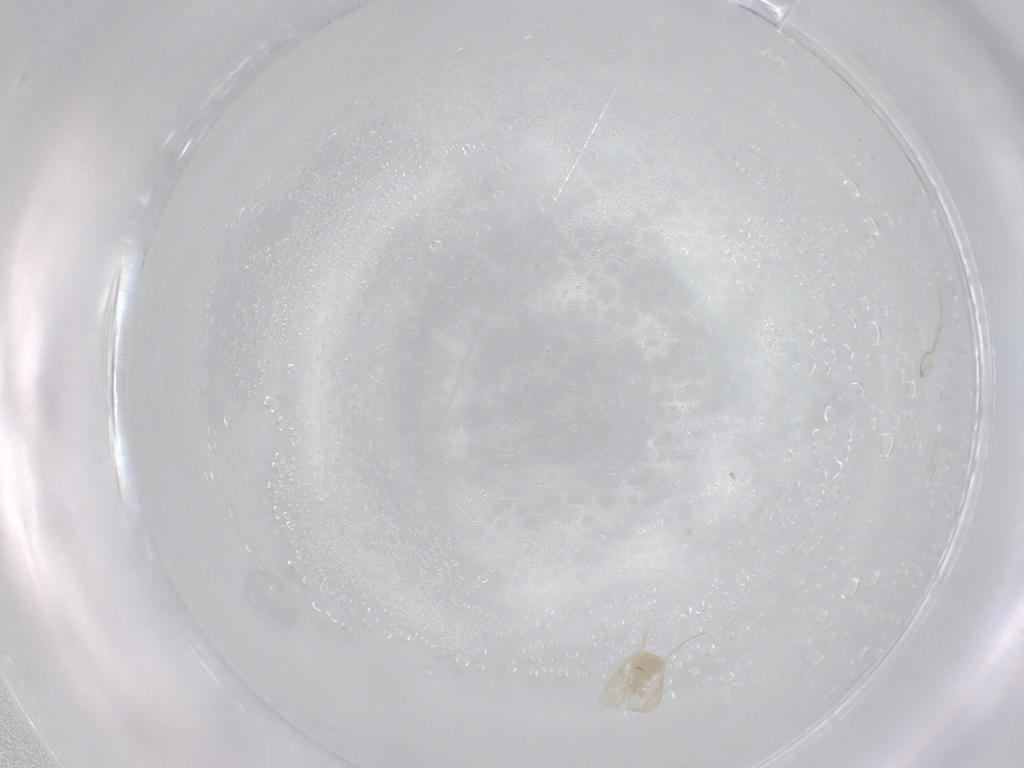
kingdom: Animalia
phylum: Arthropoda
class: Insecta
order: Hemiptera
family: Aleyrodidae
